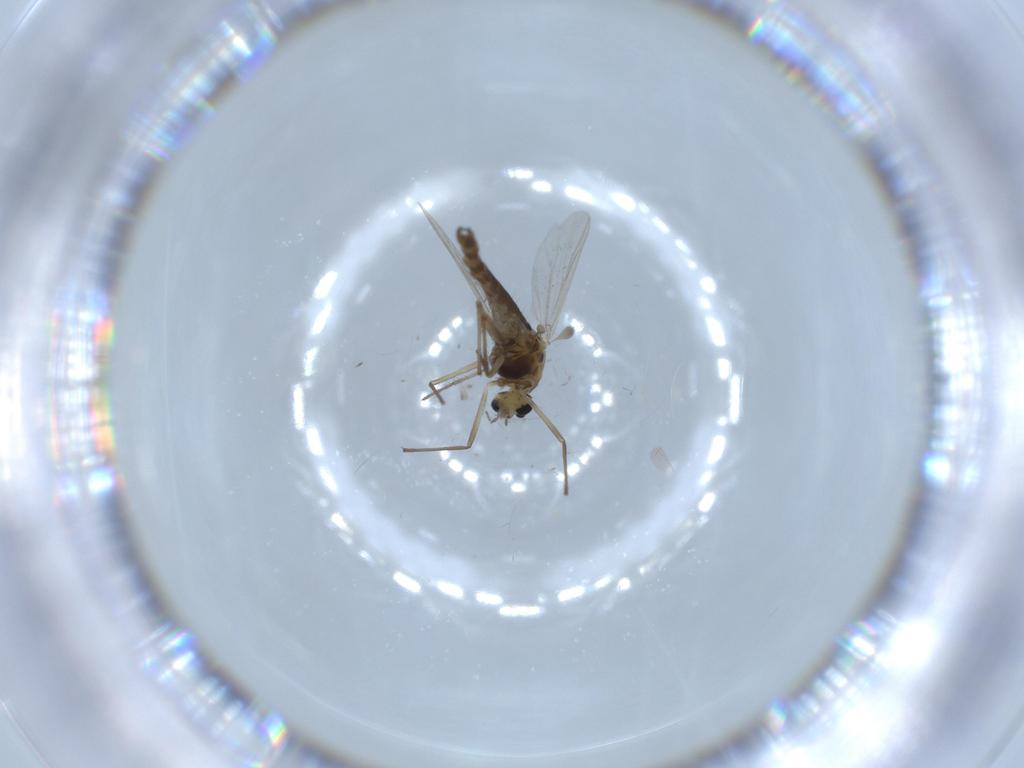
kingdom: Animalia
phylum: Arthropoda
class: Insecta
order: Diptera
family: Chironomidae
